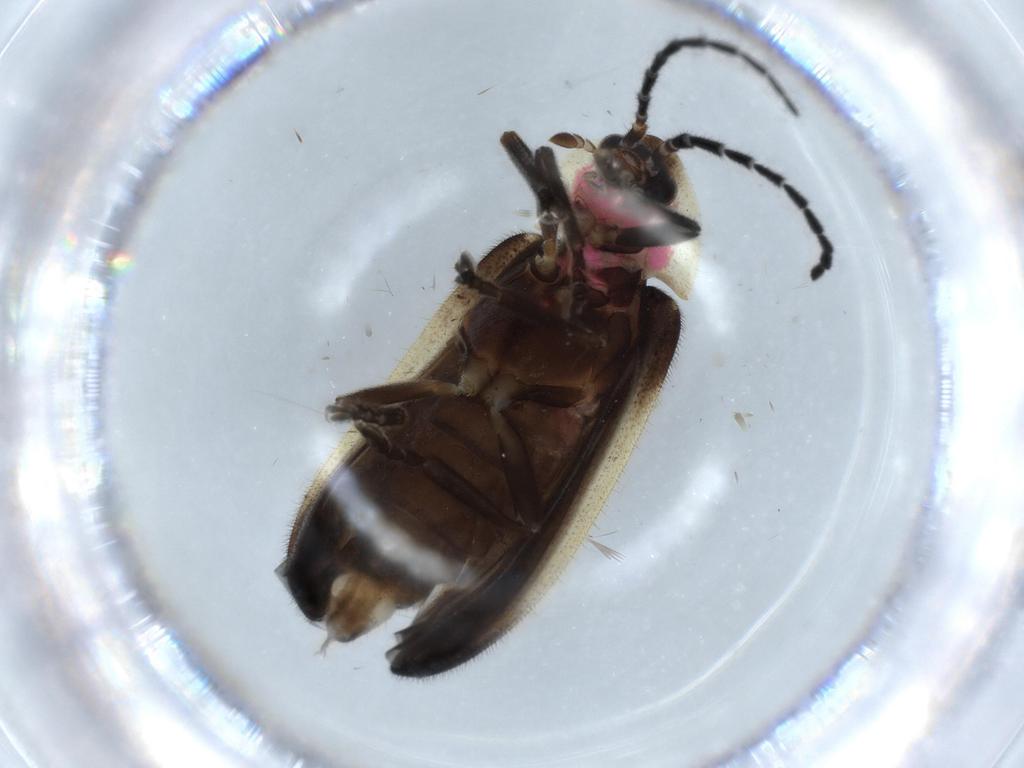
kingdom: Animalia
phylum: Arthropoda
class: Insecta
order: Coleoptera
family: Lampyridae
